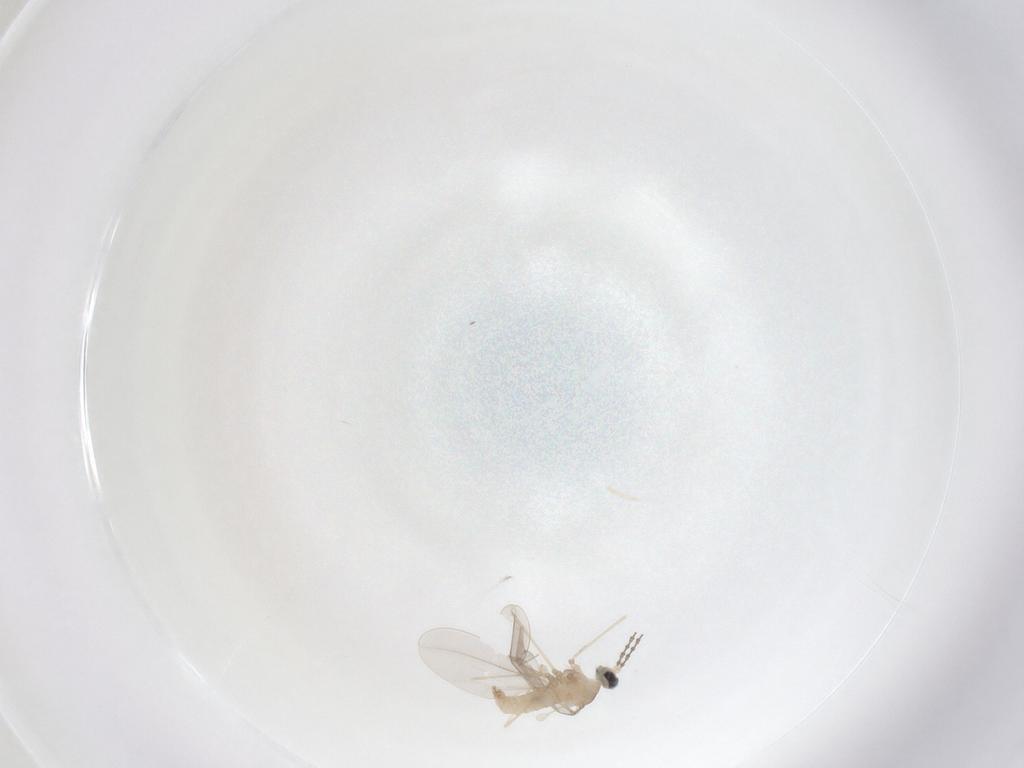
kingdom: Animalia
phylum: Arthropoda
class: Insecta
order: Diptera
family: Cecidomyiidae
